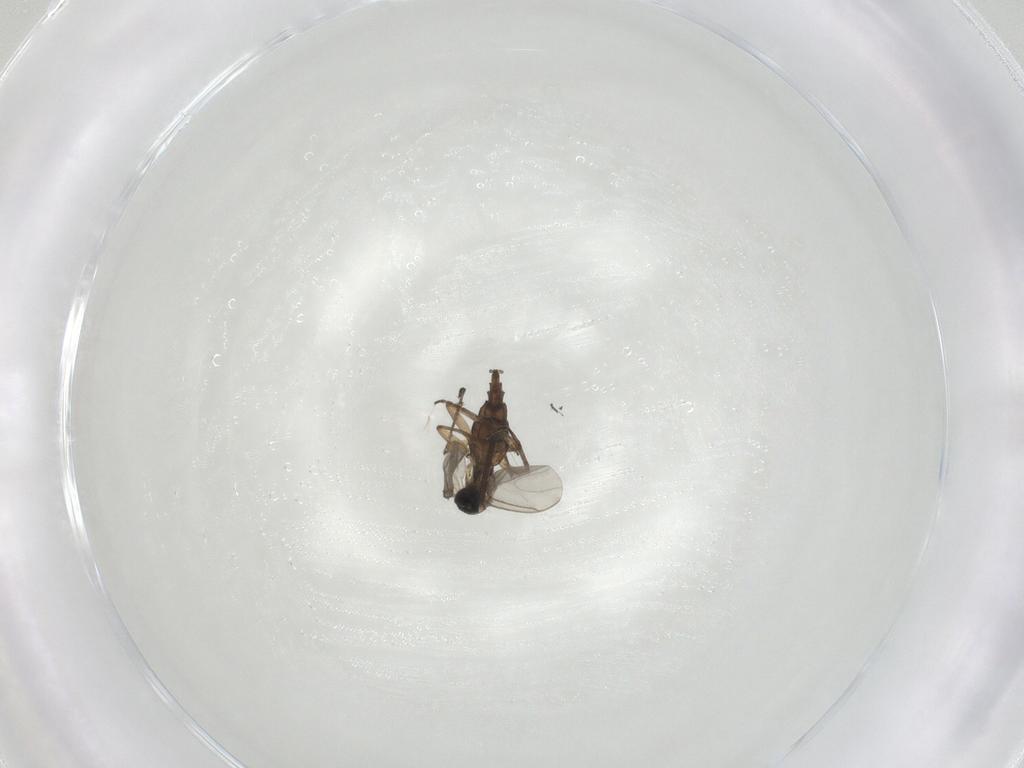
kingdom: Animalia
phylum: Arthropoda
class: Insecta
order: Diptera
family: Sciaridae
